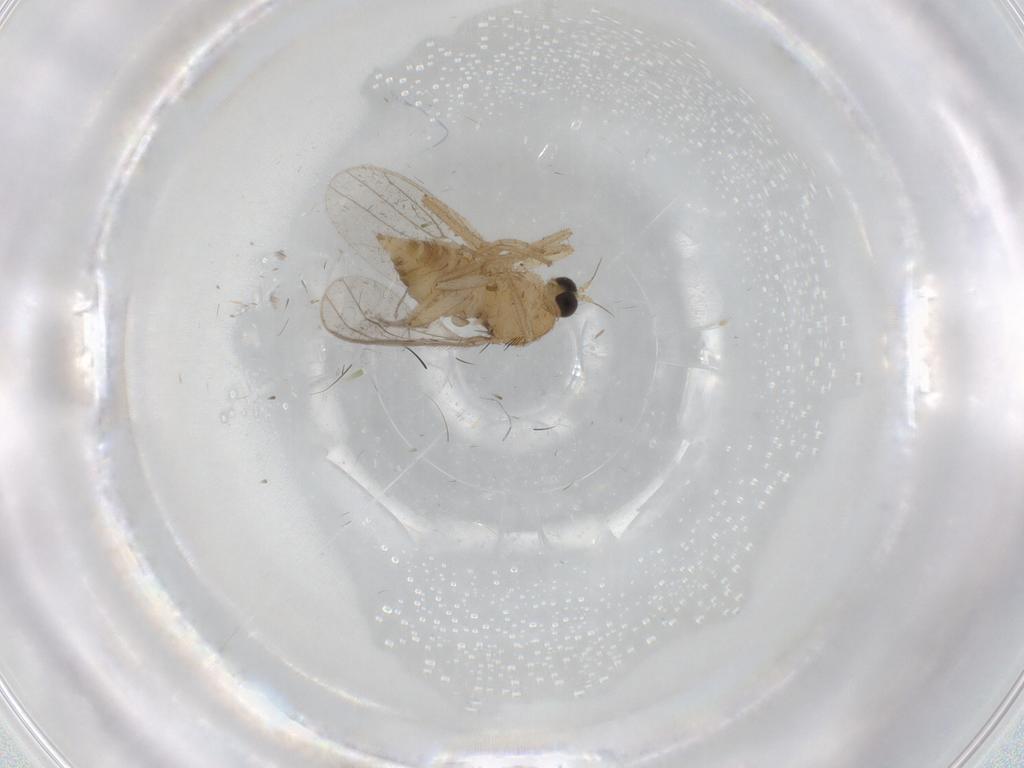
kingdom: Animalia
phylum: Arthropoda
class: Insecta
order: Diptera
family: Hybotidae
